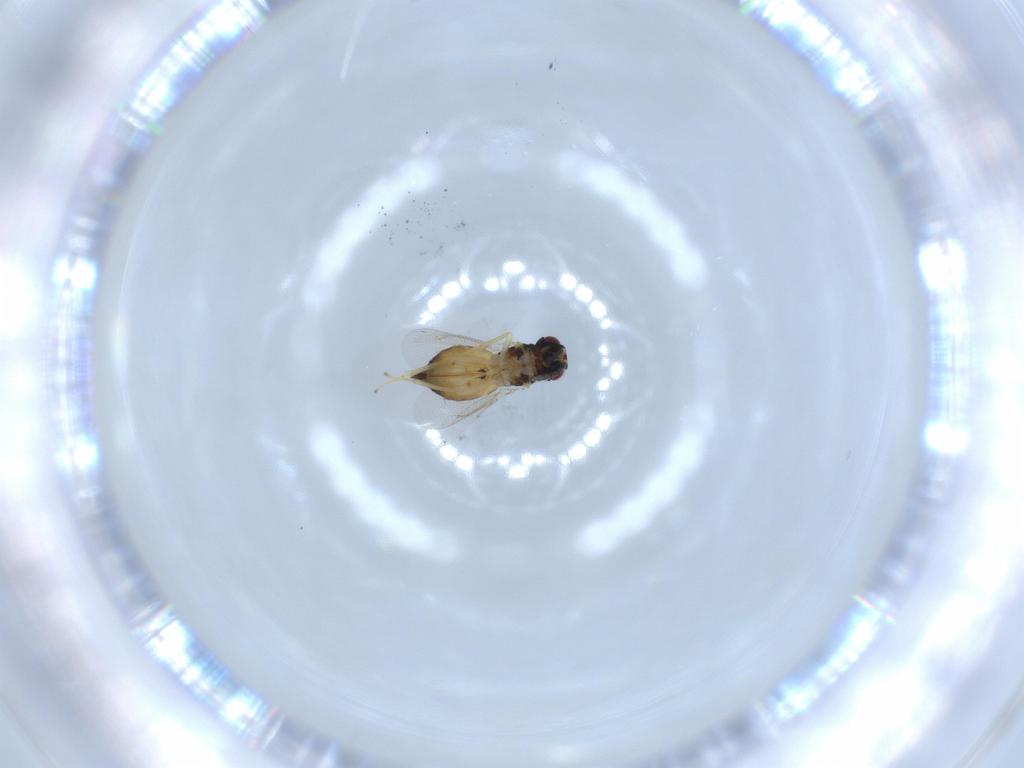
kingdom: Animalia
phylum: Arthropoda
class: Insecta
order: Hymenoptera
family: Eulophidae
